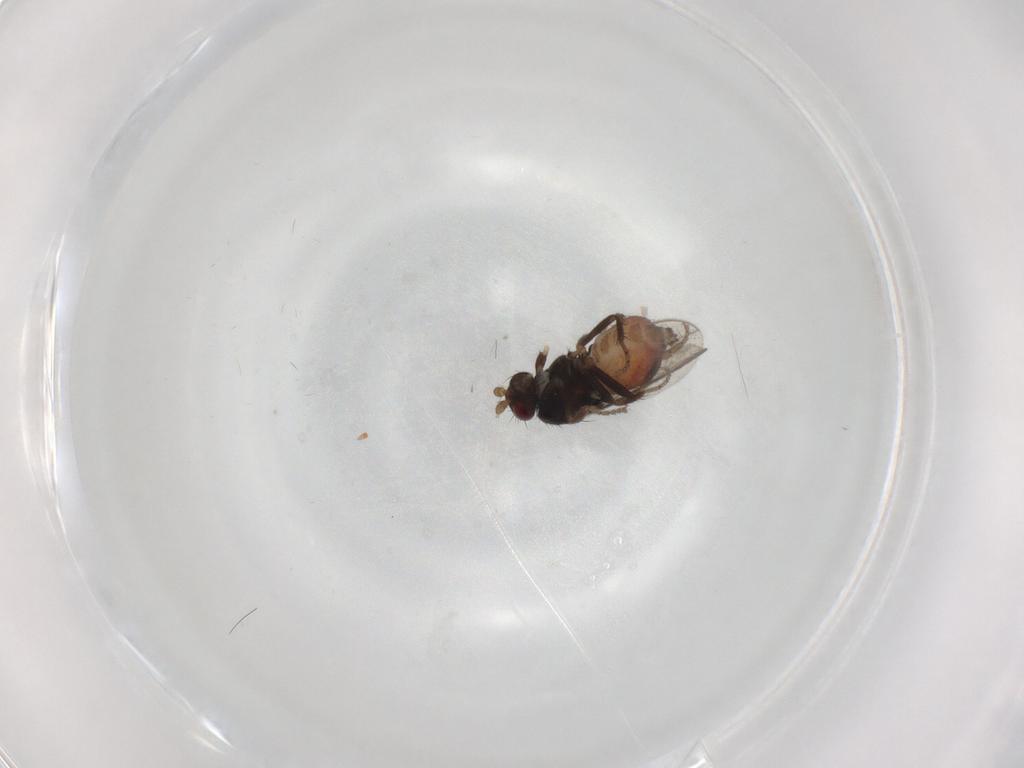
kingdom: Animalia
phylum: Arthropoda
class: Insecta
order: Diptera
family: Sphaeroceridae
